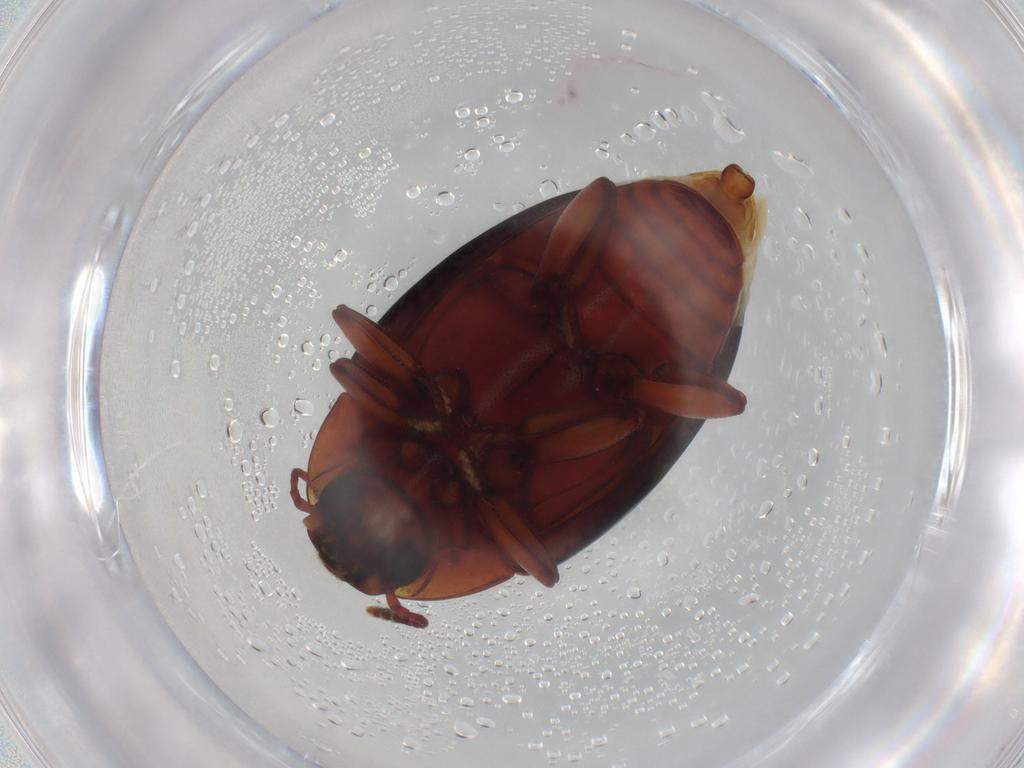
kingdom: Animalia
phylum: Arthropoda
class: Insecta
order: Coleoptera
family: Zopheridae
